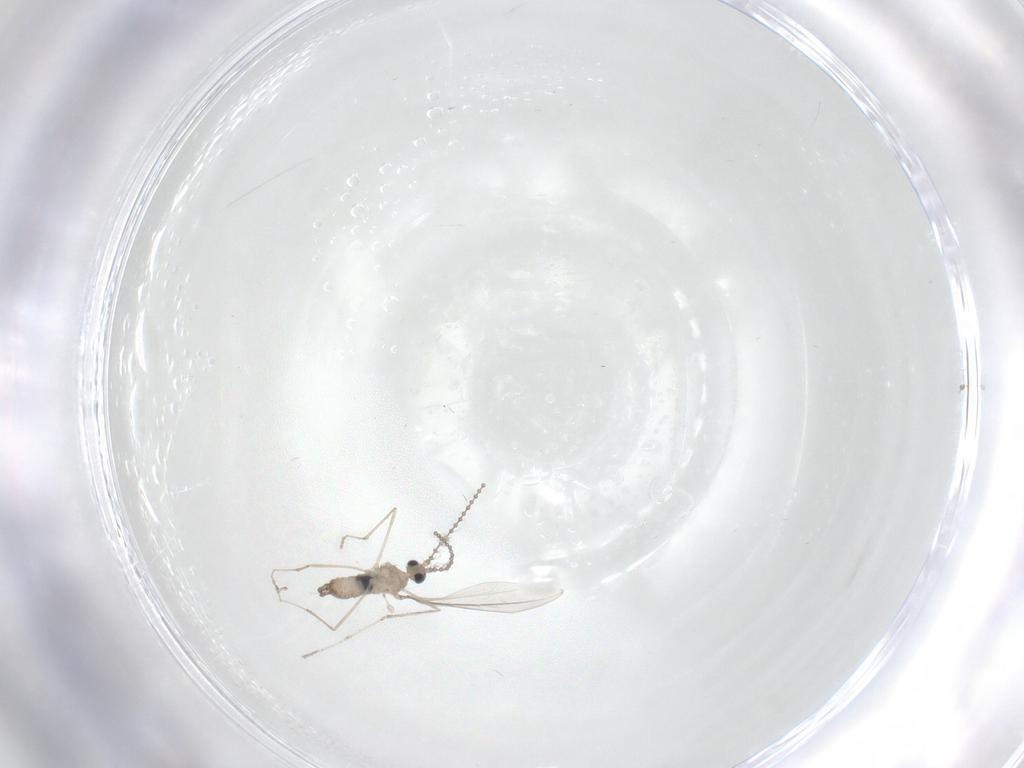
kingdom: Animalia
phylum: Arthropoda
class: Insecta
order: Diptera
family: Cecidomyiidae
